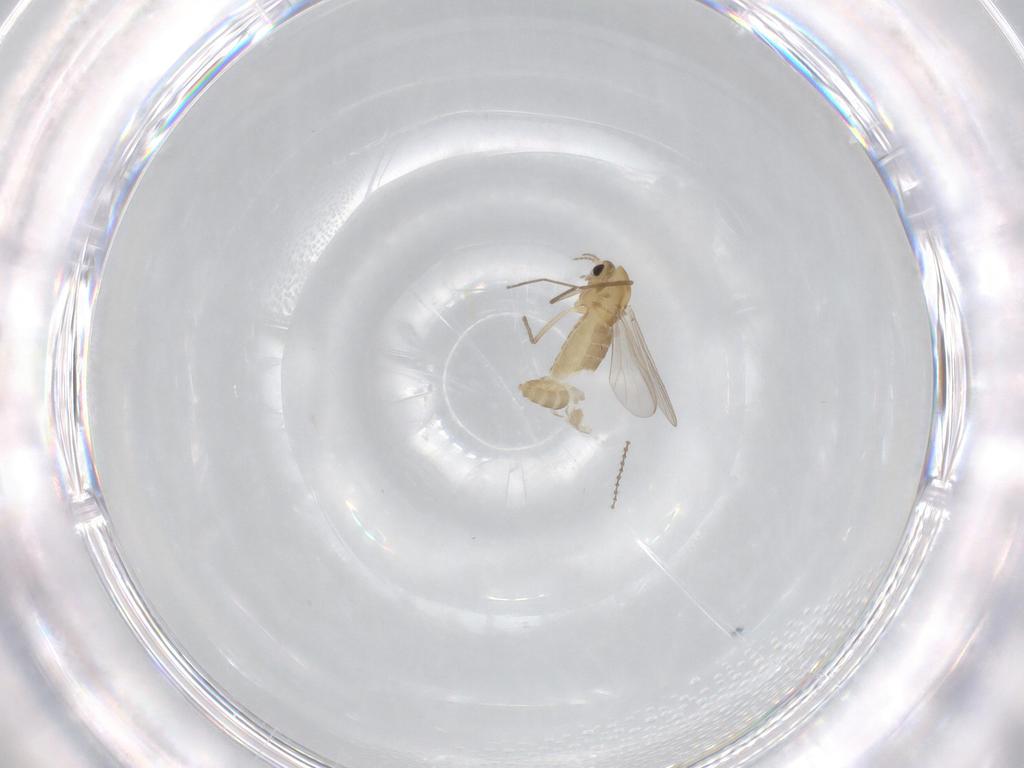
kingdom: Animalia
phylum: Arthropoda
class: Insecta
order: Diptera
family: Chironomidae
